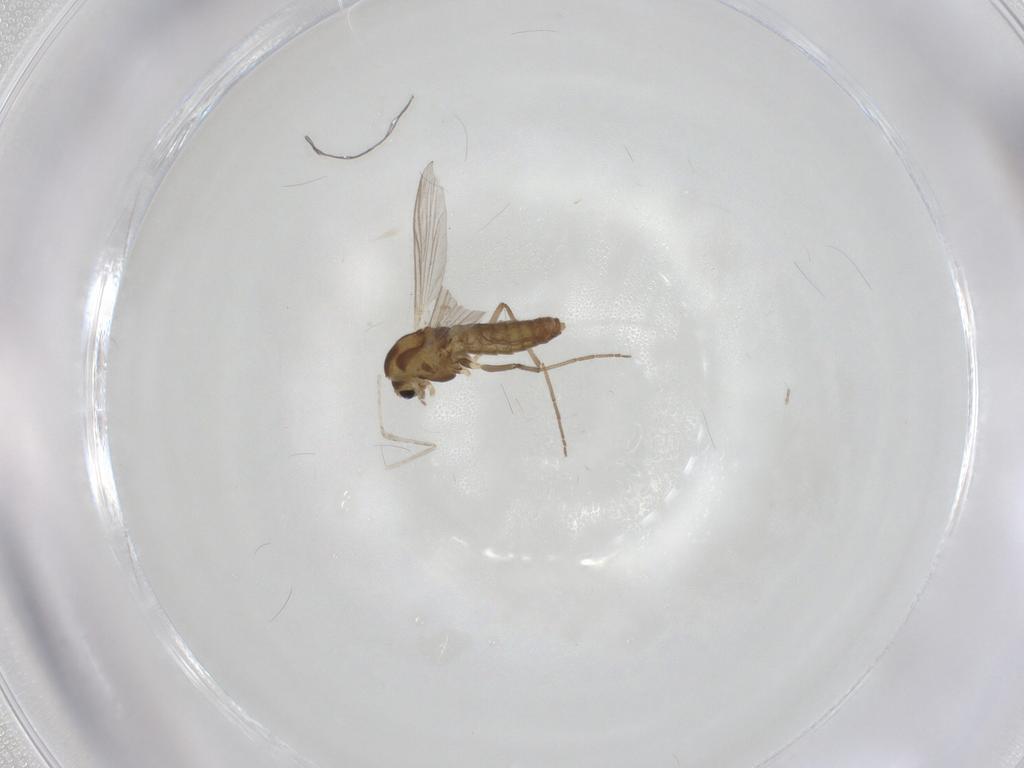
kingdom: Animalia
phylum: Arthropoda
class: Insecta
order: Diptera
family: Chironomidae
